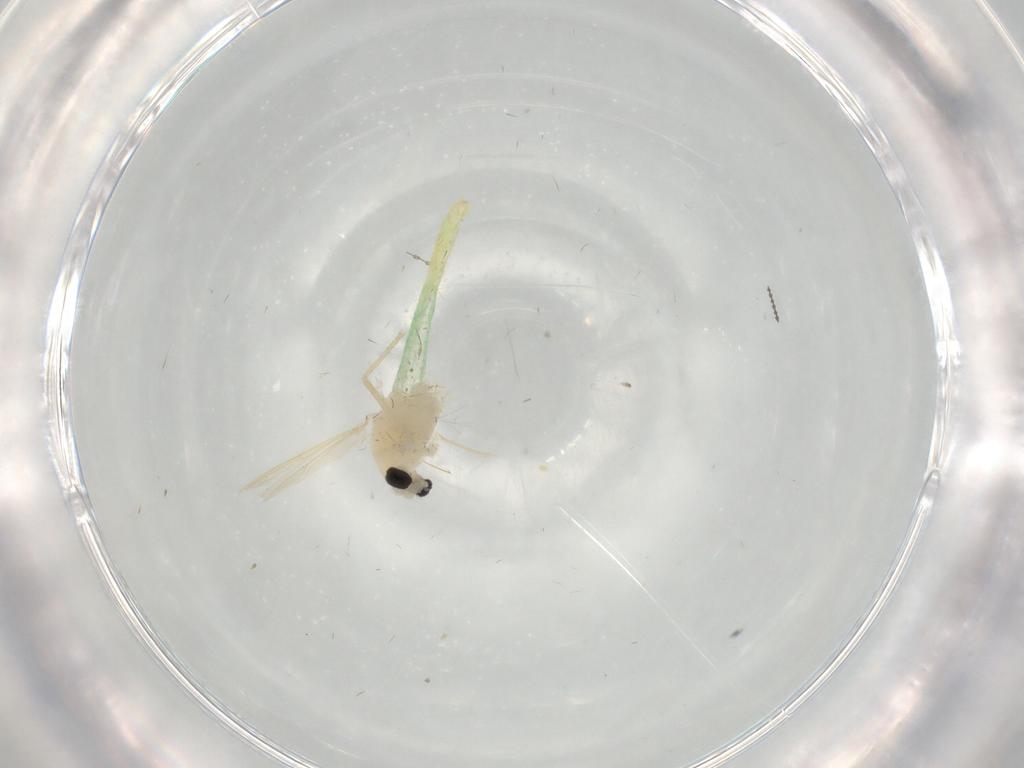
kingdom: Animalia
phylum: Arthropoda
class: Insecta
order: Diptera
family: Chironomidae
